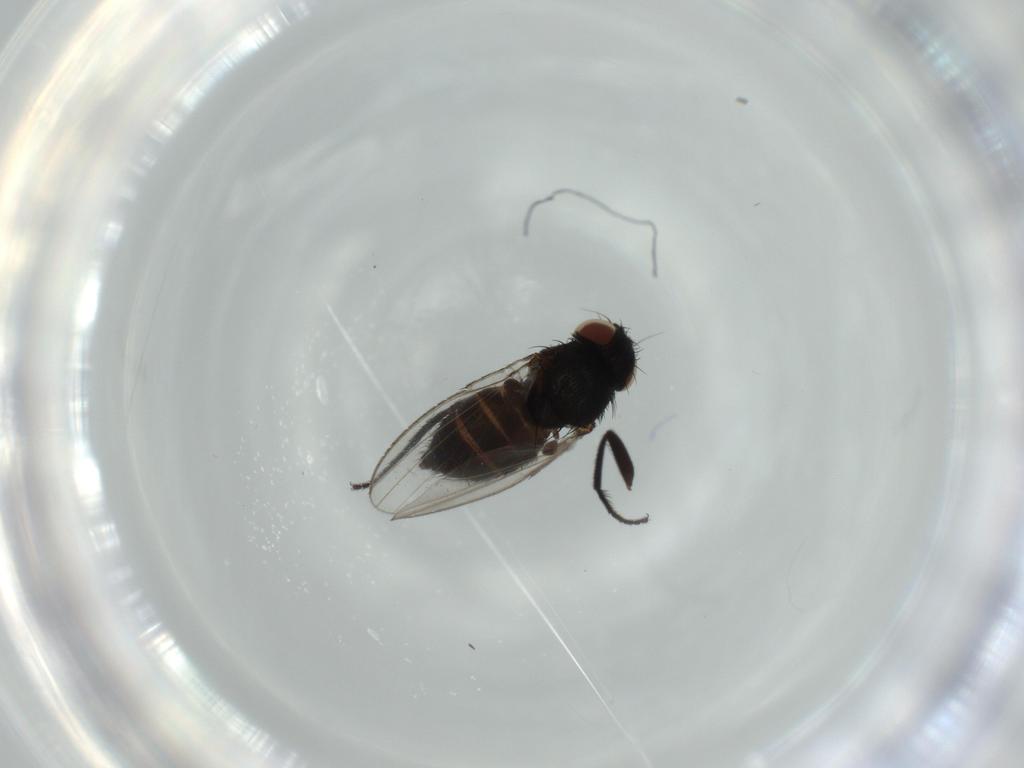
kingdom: Animalia
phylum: Arthropoda
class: Insecta
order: Diptera
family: Milichiidae
